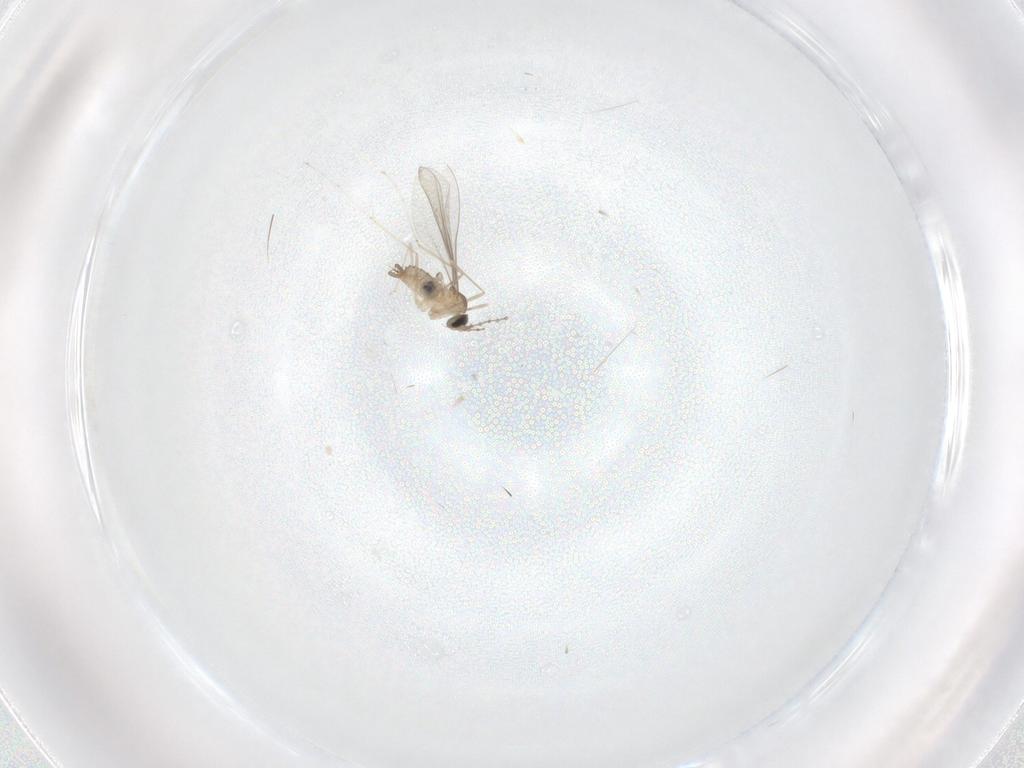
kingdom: Animalia
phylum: Arthropoda
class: Insecta
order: Diptera
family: Cecidomyiidae
